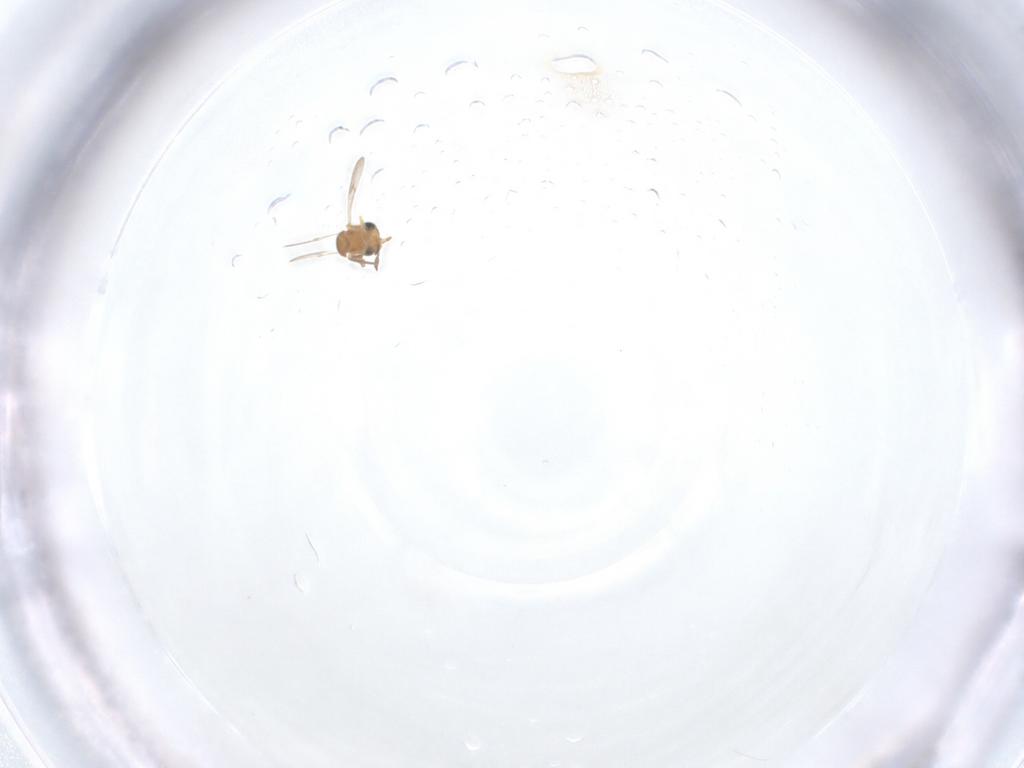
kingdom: Animalia
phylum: Arthropoda
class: Insecta
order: Hymenoptera
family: Scelionidae
